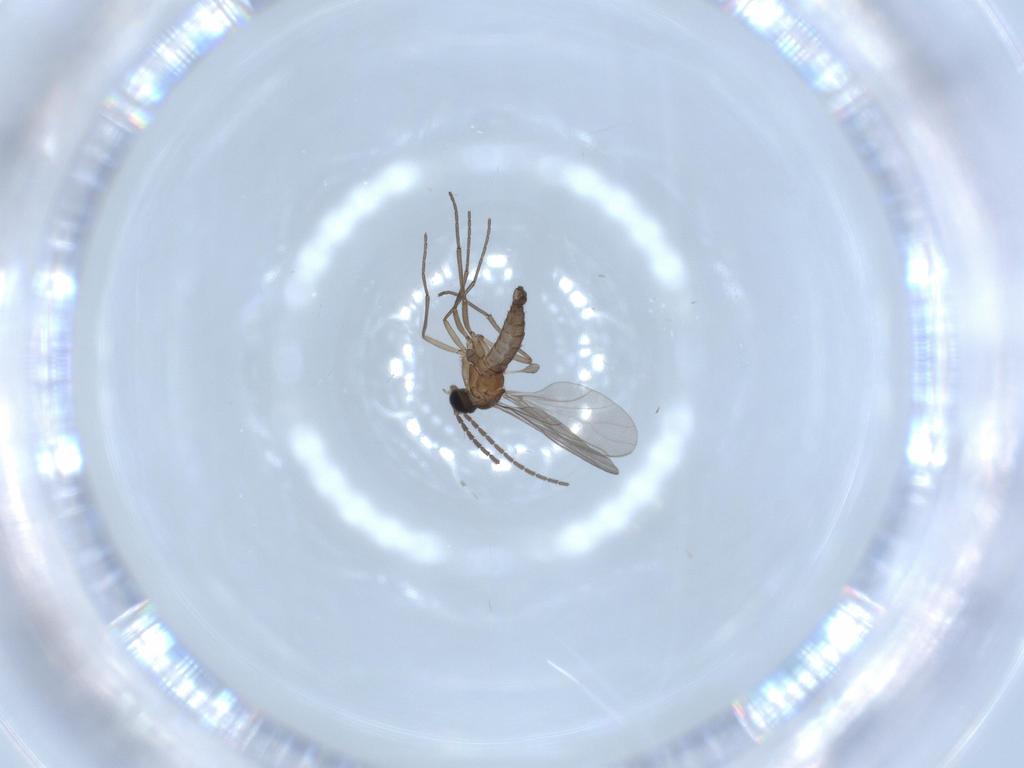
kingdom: Animalia
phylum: Arthropoda
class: Insecta
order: Diptera
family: Sciaridae
